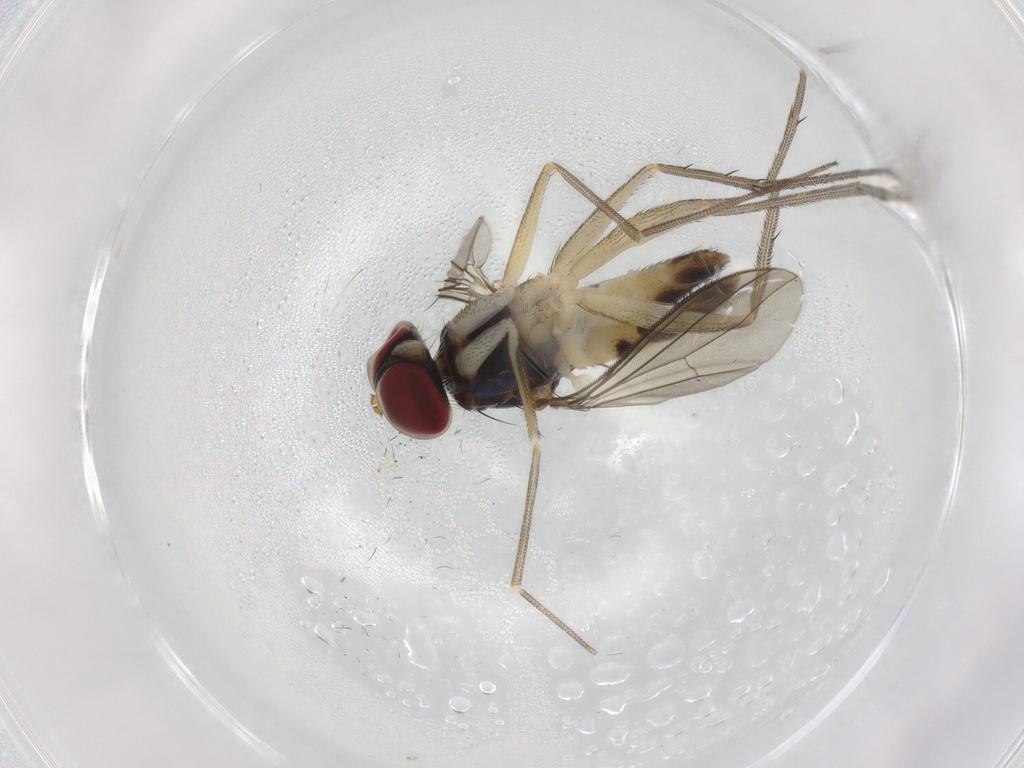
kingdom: Animalia
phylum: Arthropoda
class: Insecta
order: Diptera
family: Dolichopodidae
